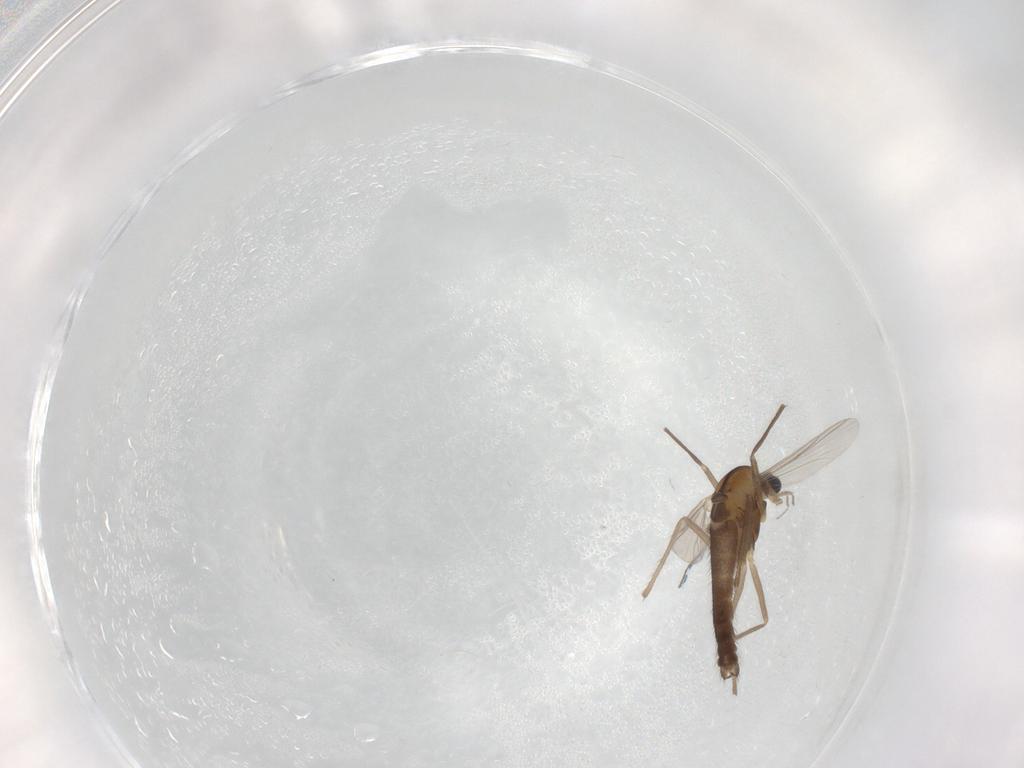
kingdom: Animalia
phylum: Arthropoda
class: Insecta
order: Diptera
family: Chironomidae
